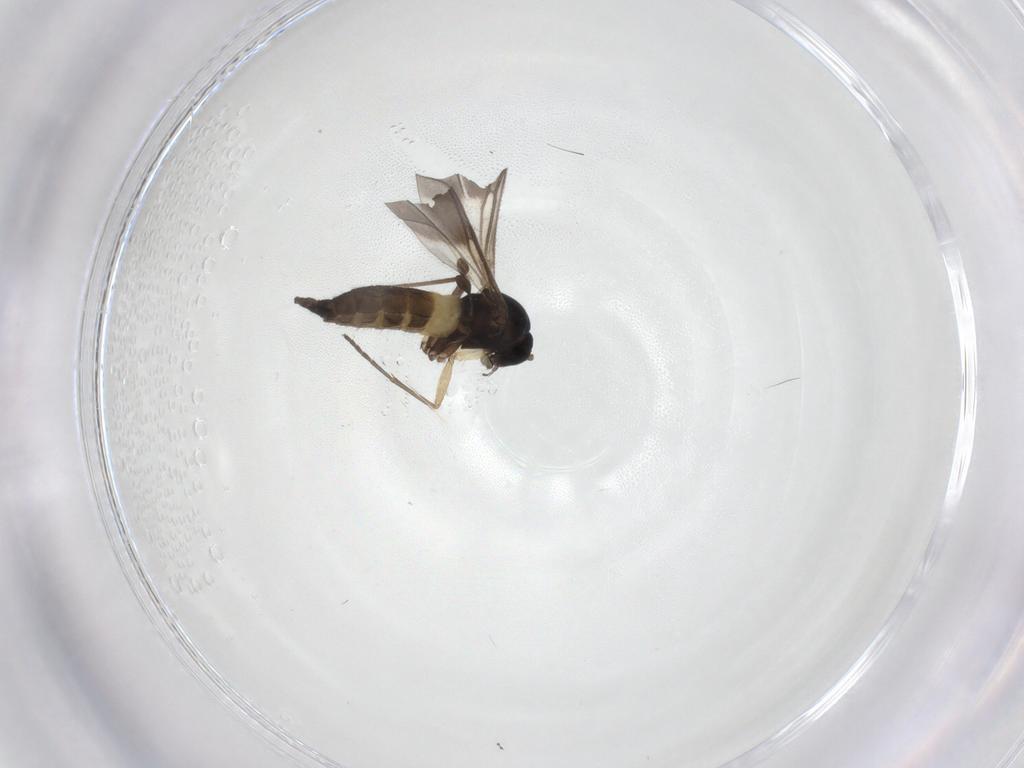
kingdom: Animalia
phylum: Arthropoda
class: Insecta
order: Diptera
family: Sciaridae
